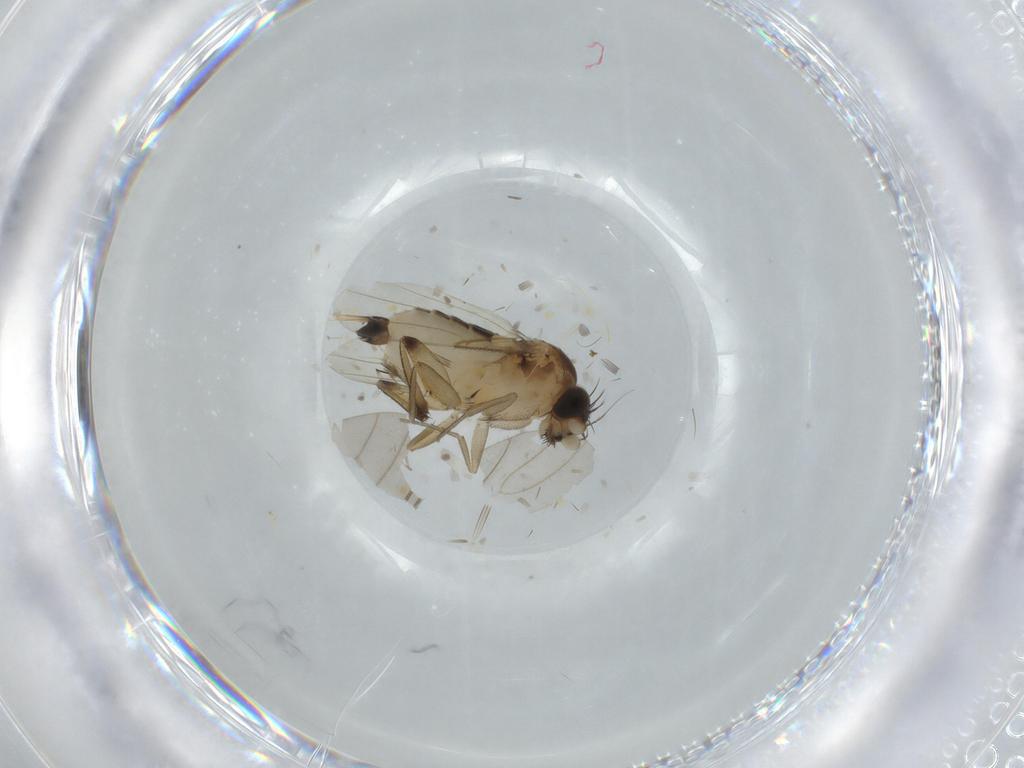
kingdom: Animalia
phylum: Arthropoda
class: Insecta
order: Diptera
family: Phoridae
